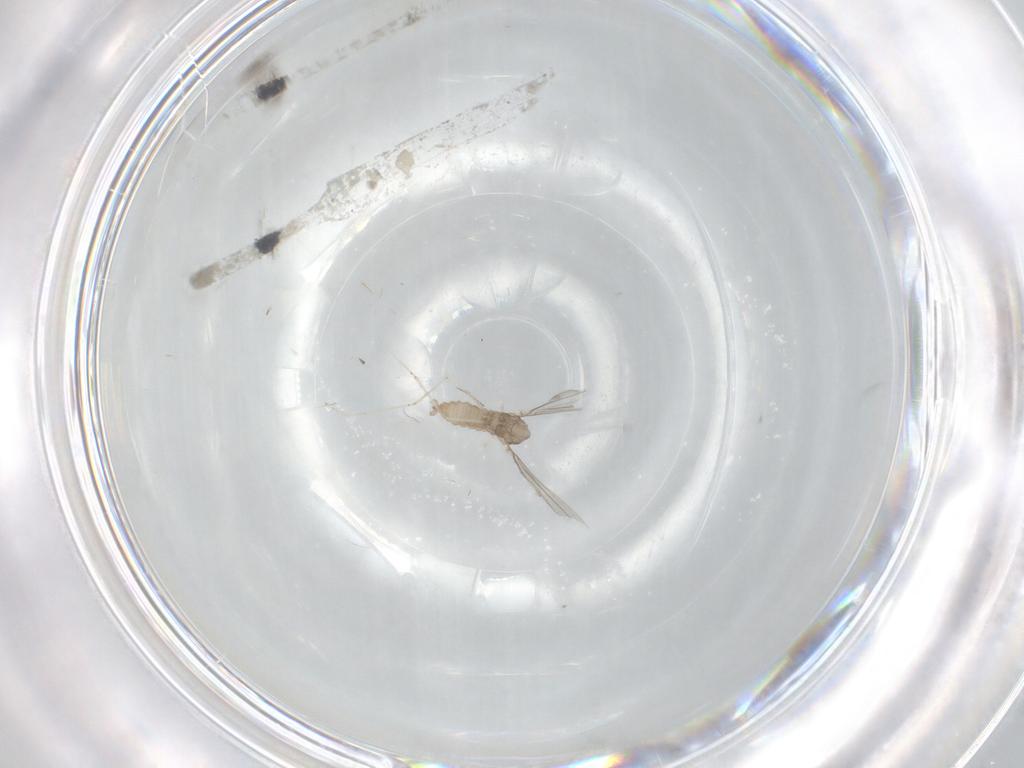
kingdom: Animalia
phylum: Arthropoda
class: Insecta
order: Diptera
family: Cecidomyiidae
